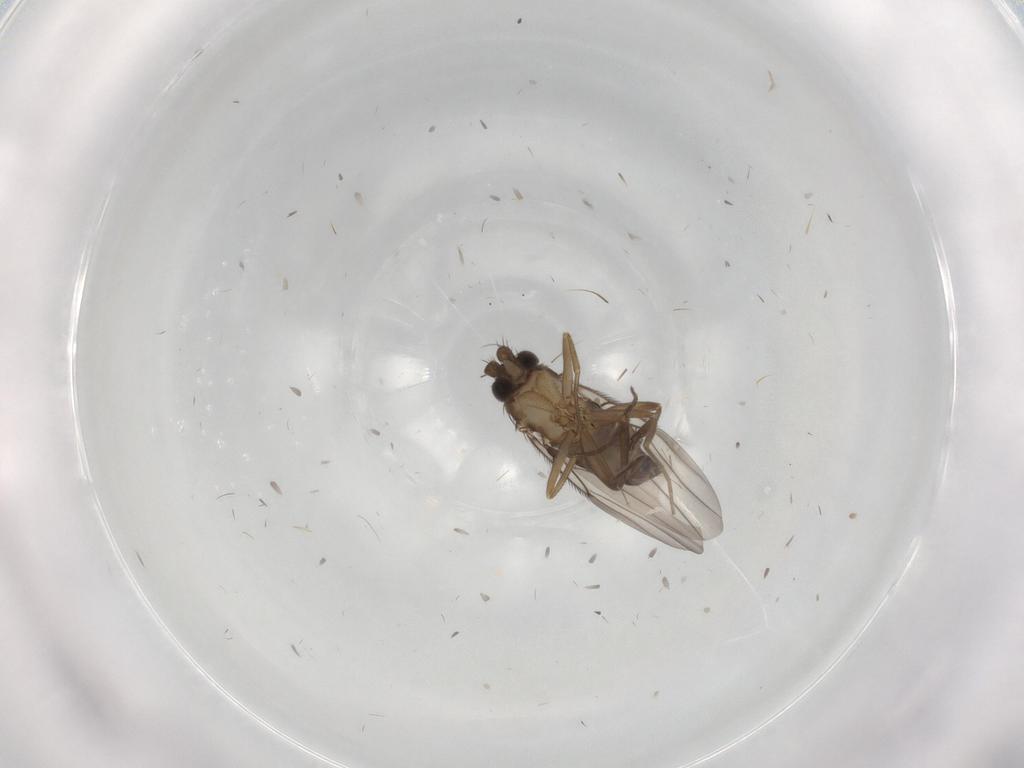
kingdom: Animalia
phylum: Arthropoda
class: Insecta
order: Diptera
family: Phoridae
